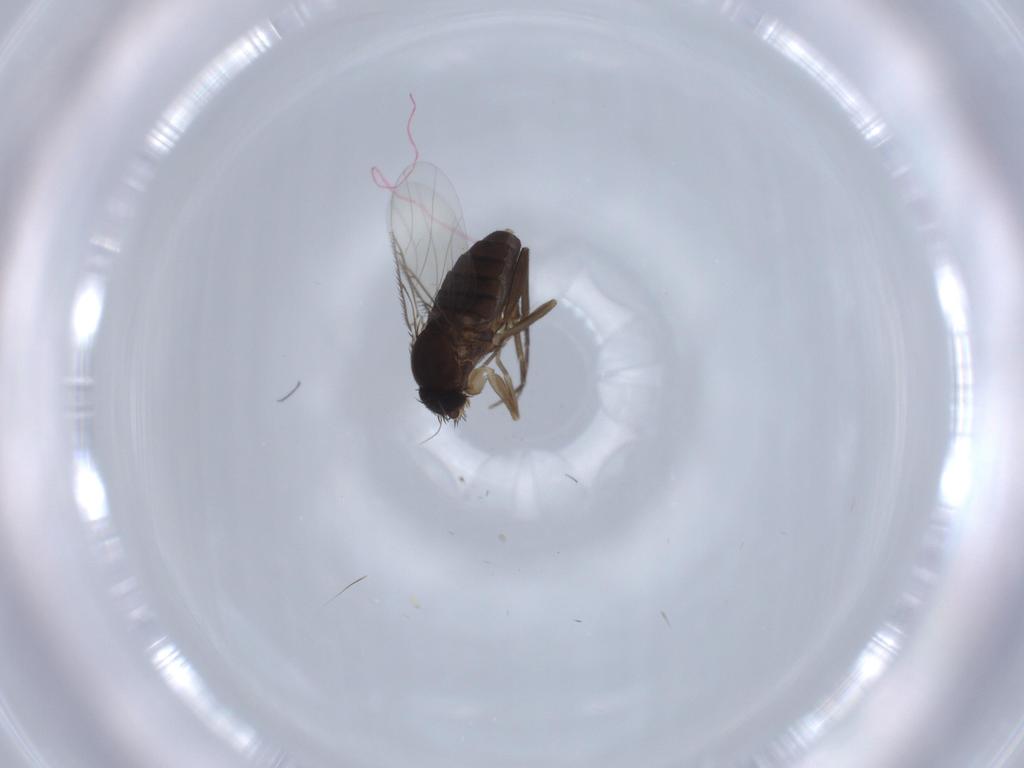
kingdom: Animalia
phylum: Arthropoda
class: Insecta
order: Diptera
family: Phoridae
